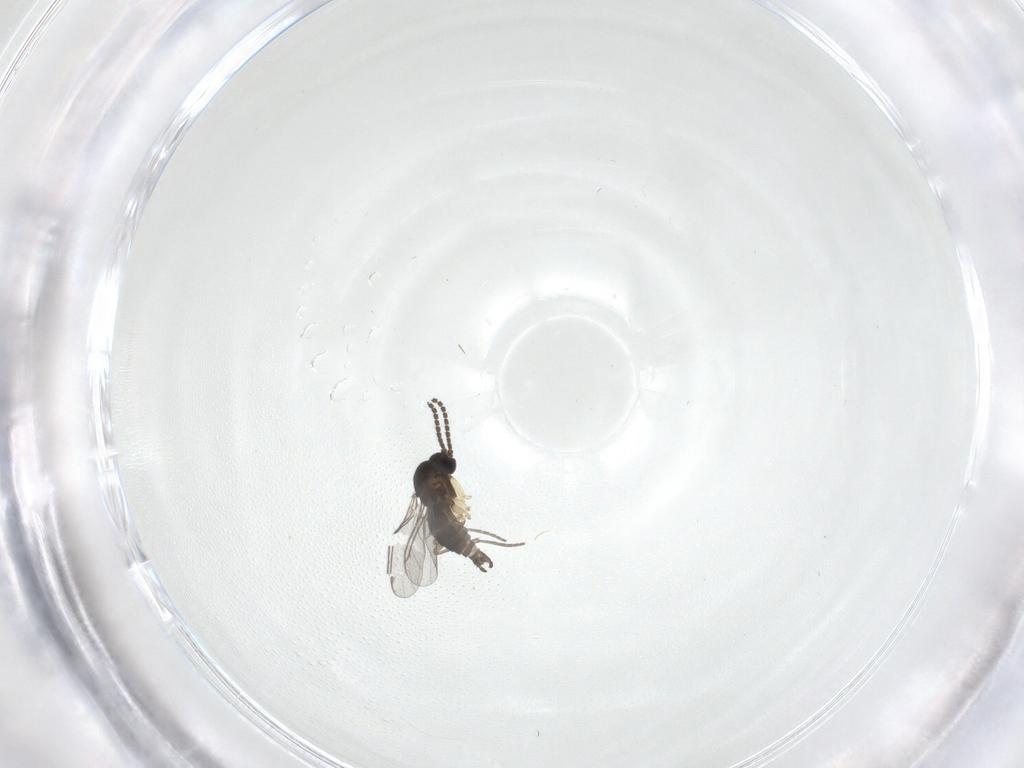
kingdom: Animalia
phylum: Arthropoda
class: Insecta
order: Diptera
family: Sciaridae
